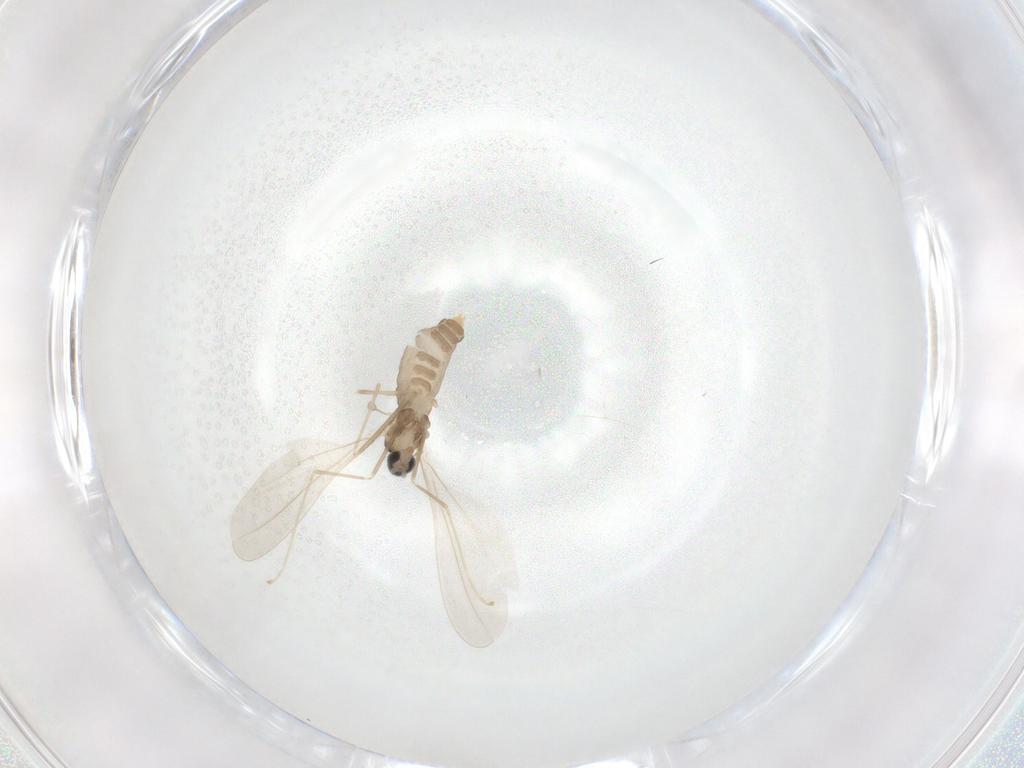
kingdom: Animalia
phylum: Arthropoda
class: Insecta
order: Diptera
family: Cecidomyiidae
